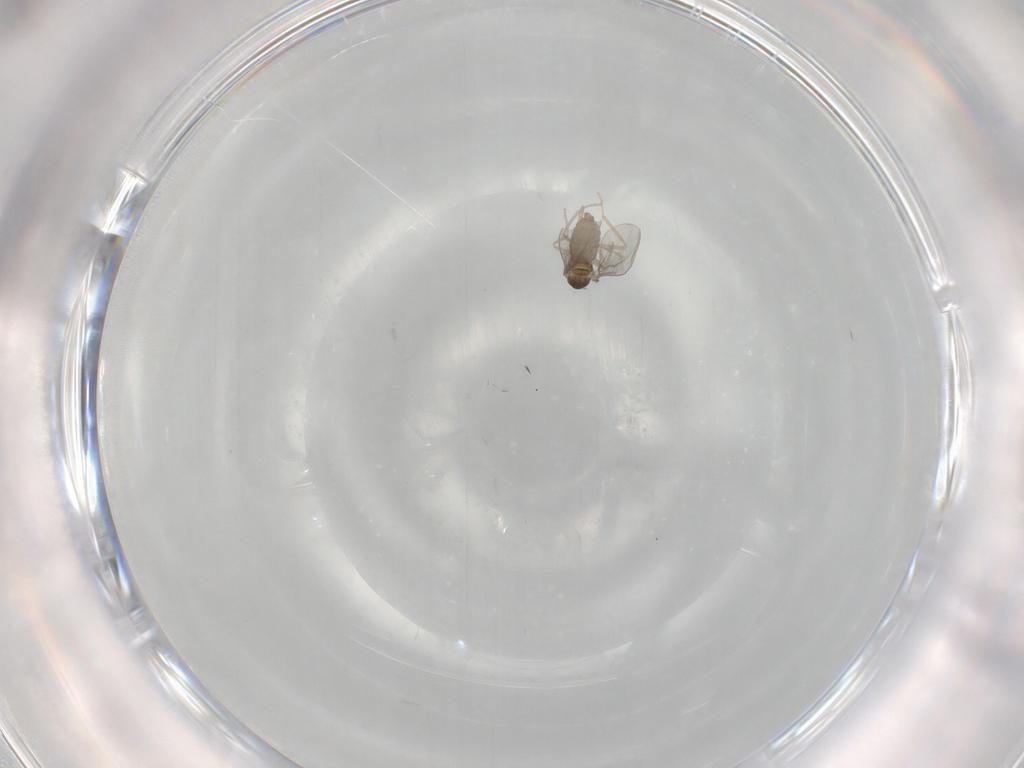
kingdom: Animalia
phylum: Arthropoda
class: Insecta
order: Diptera
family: Cecidomyiidae
